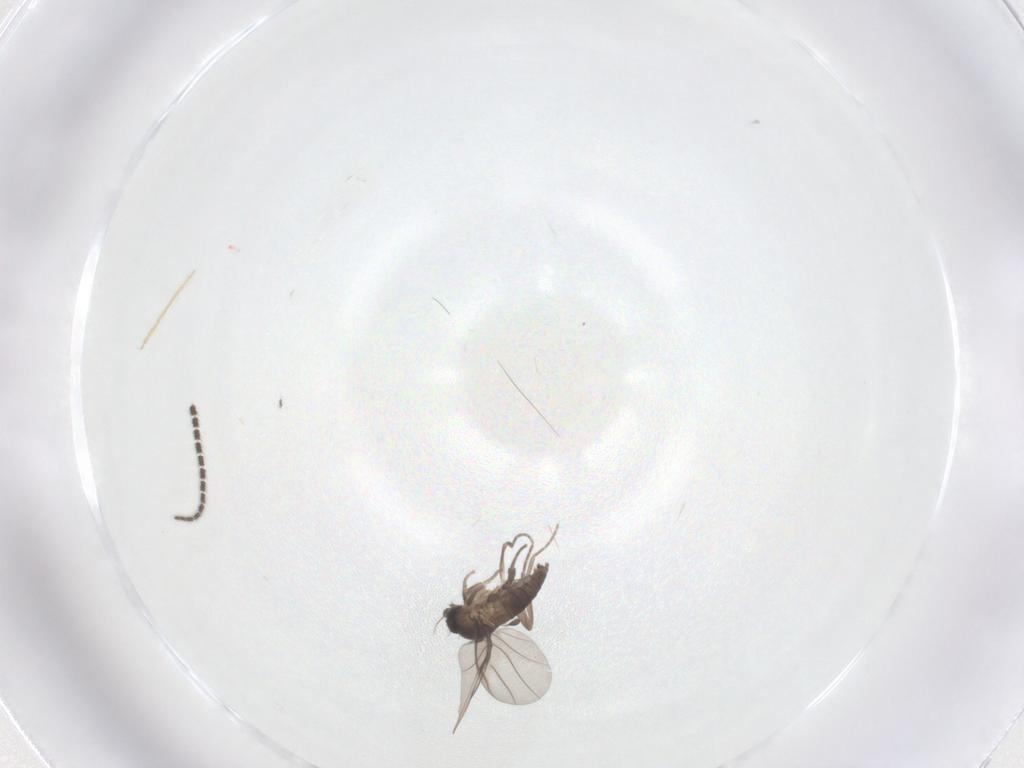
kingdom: Animalia
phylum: Arthropoda
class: Insecta
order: Diptera
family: Sciaridae
